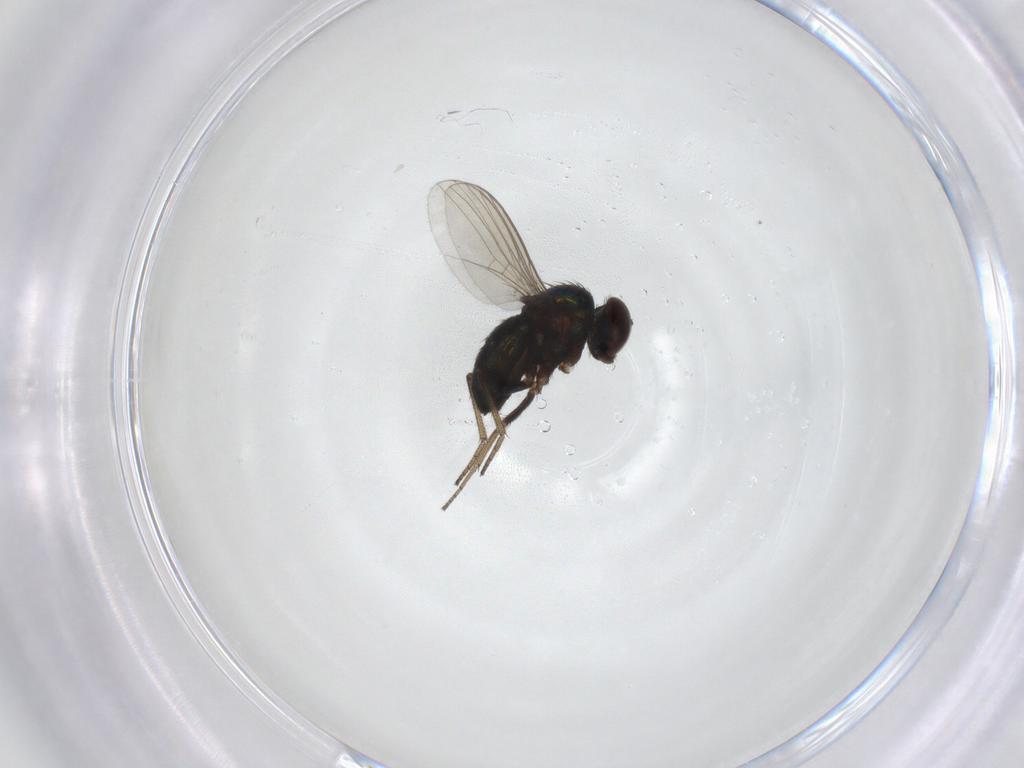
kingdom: Animalia
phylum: Arthropoda
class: Insecta
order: Diptera
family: Dolichopodidae
